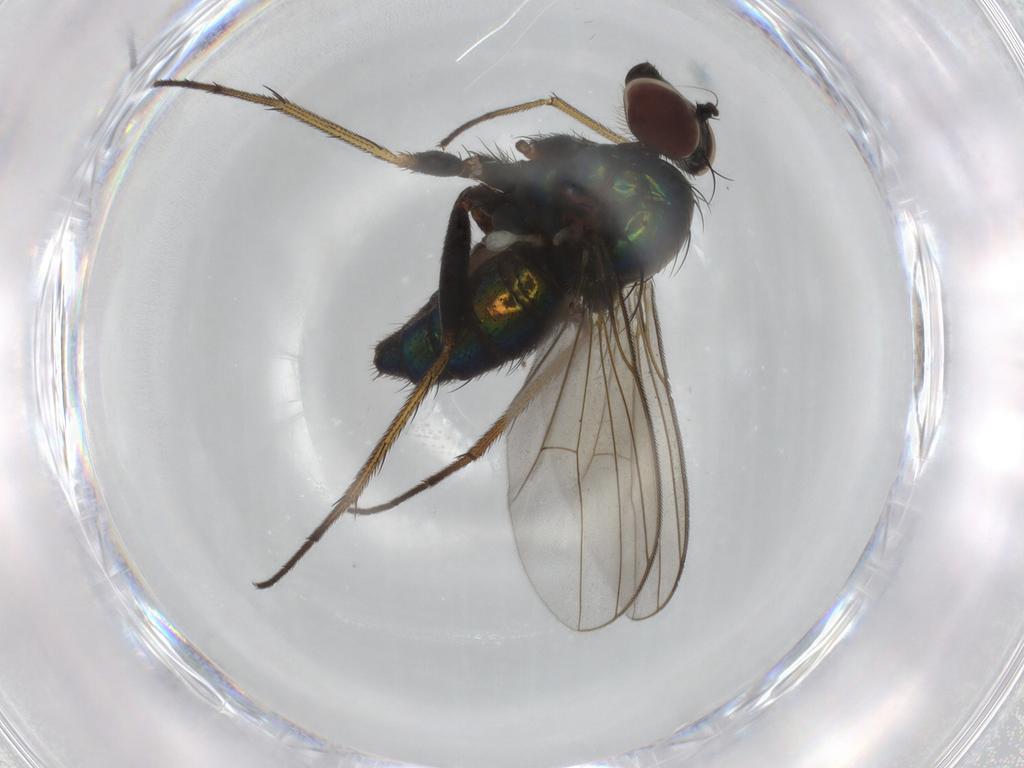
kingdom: Animalia
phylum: Arthropoda
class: Insecta
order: Diptera
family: Dolichopodidae
